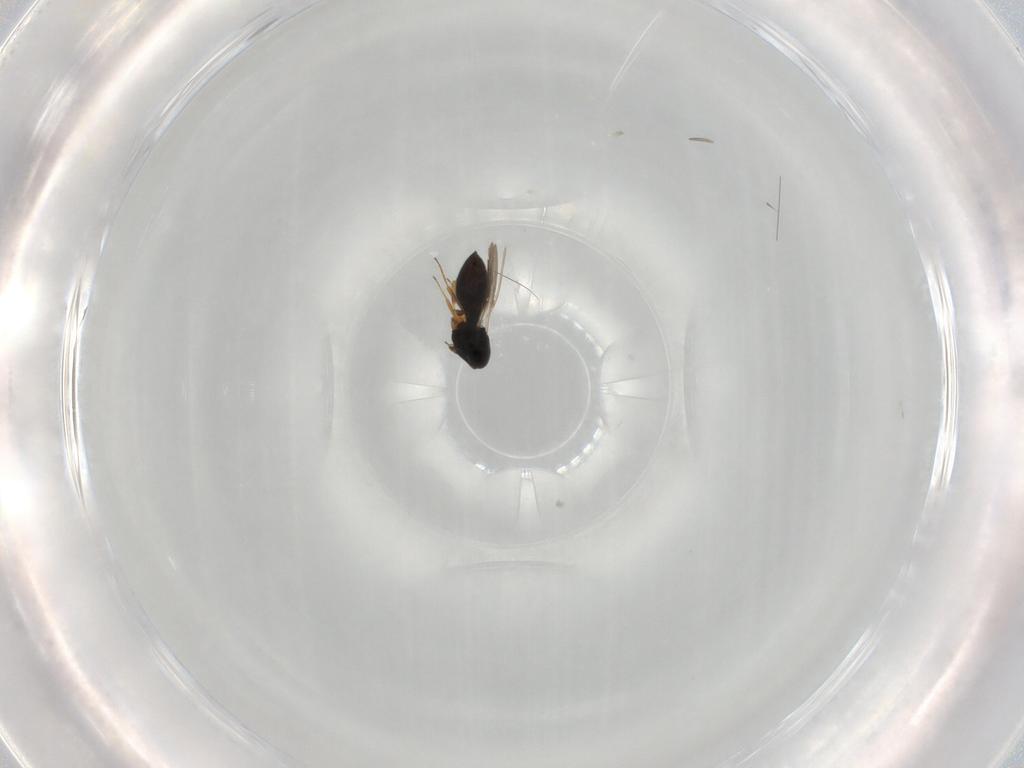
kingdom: Animalia
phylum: Arthropoda
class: Insecta
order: Hymenoptera
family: Scelionidae
